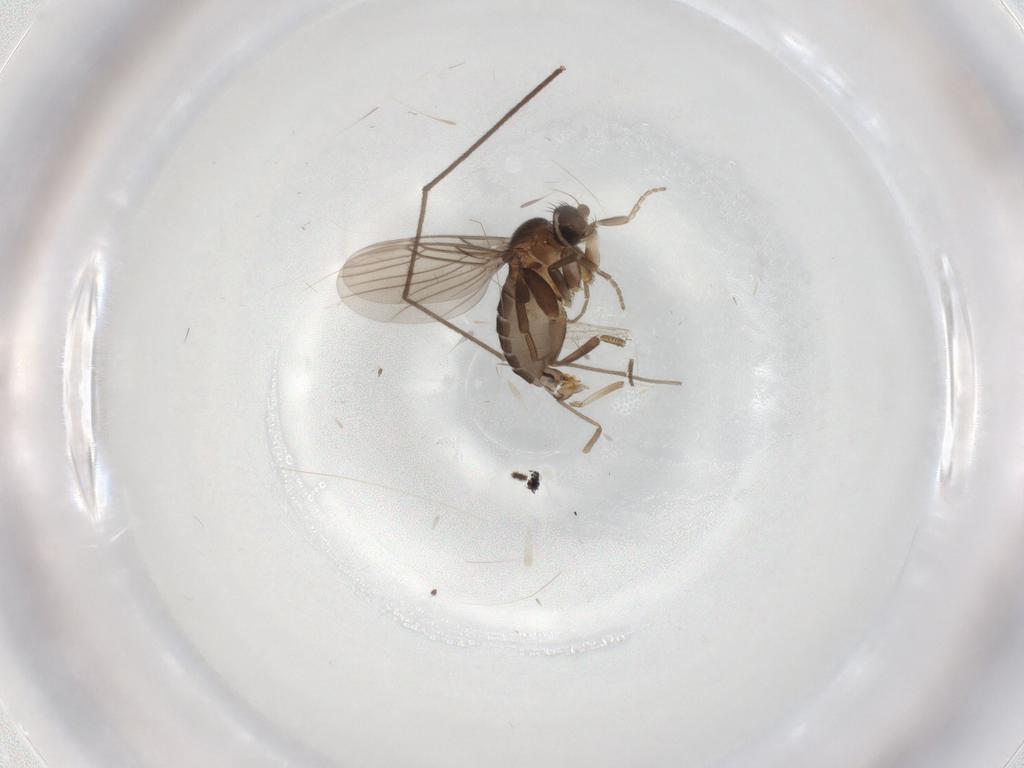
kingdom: Animalia
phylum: Arthropoda
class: Insecta
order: Diptera
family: Phoridae
